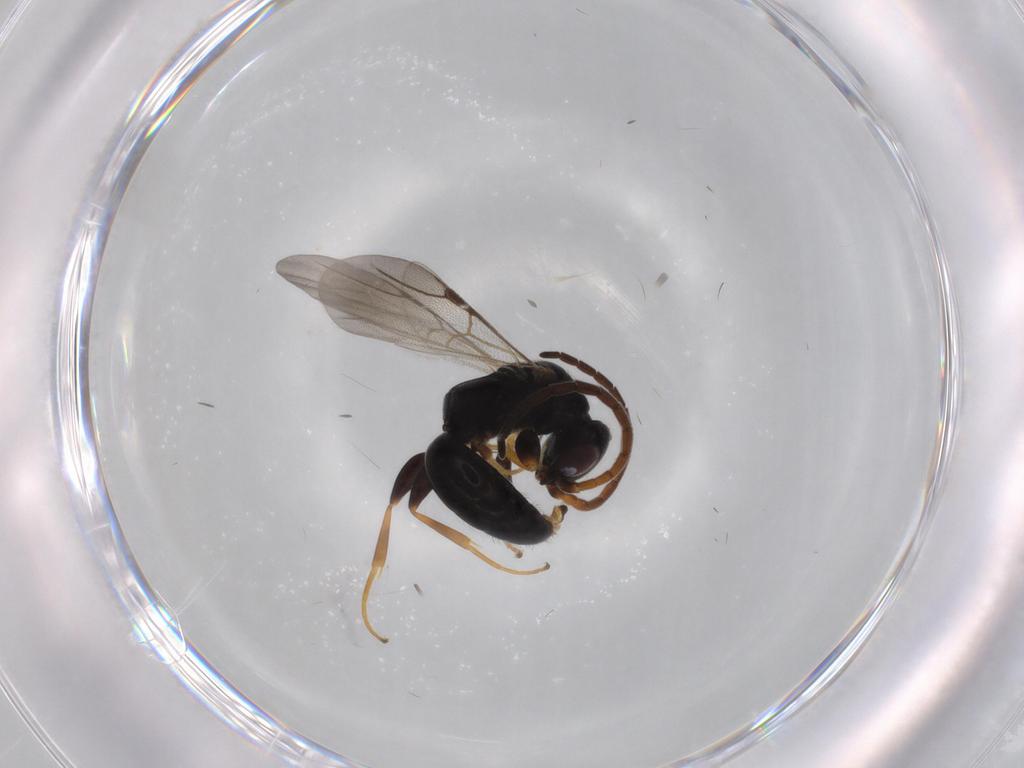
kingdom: Animalia
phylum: Arthropoda
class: Insecta
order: Hymenoptera
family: Bethylidae
